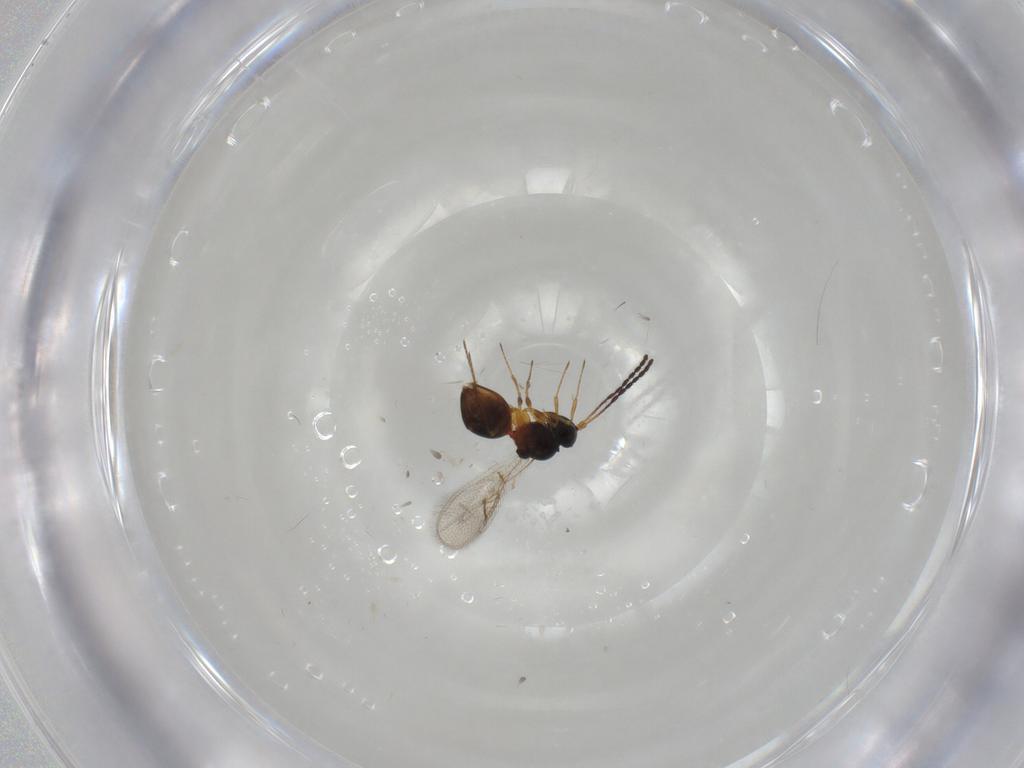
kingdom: Animalia
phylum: Arthropoda
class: Insecta
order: Hymenoptera
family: Figitidae
